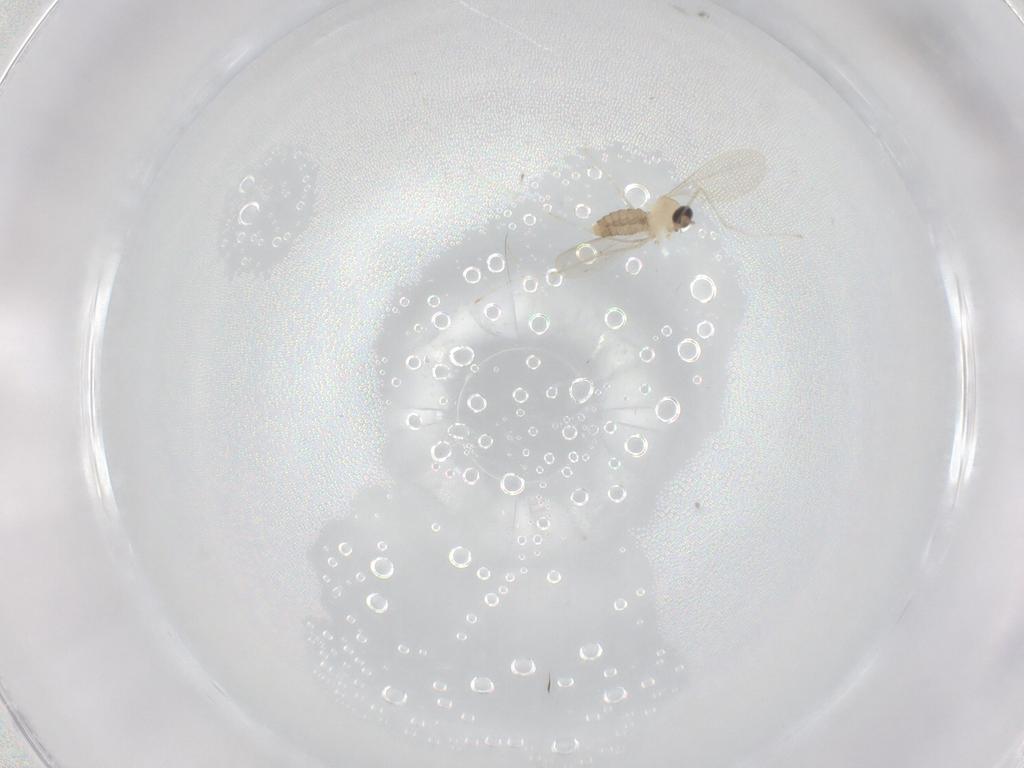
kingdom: Animalia
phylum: Arthropoda
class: Insecta
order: Diptera
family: Cecidomyiidae
